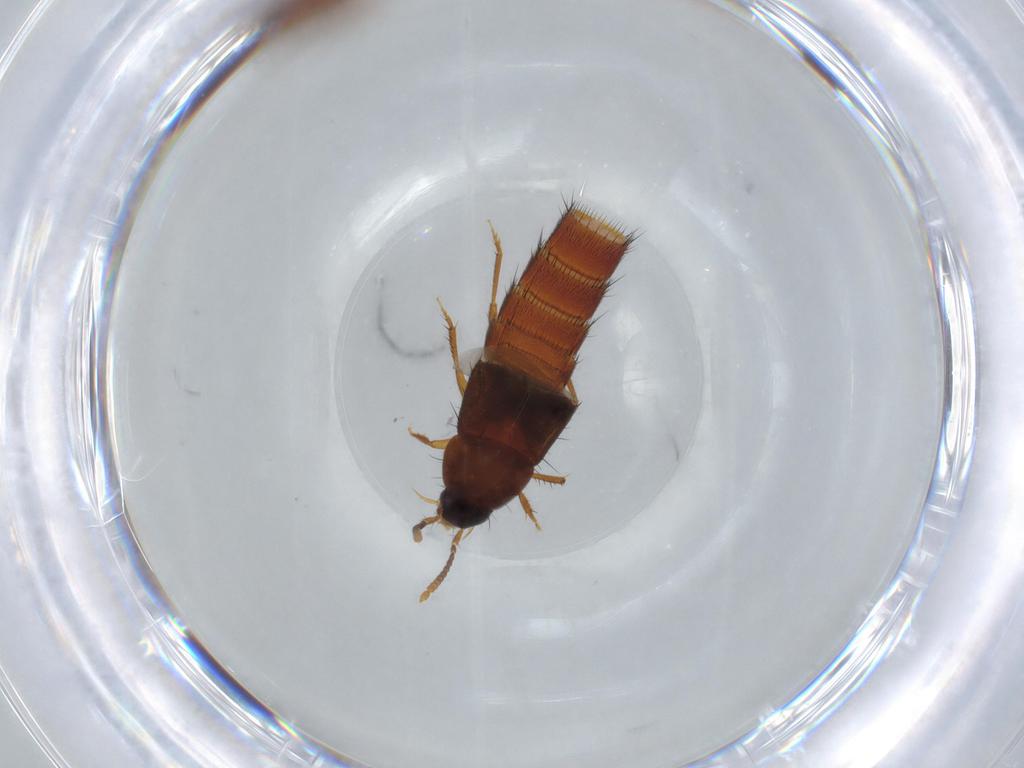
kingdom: Animalia
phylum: Arthropoda
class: Insecta
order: Coleoptera
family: Staphylinidae
